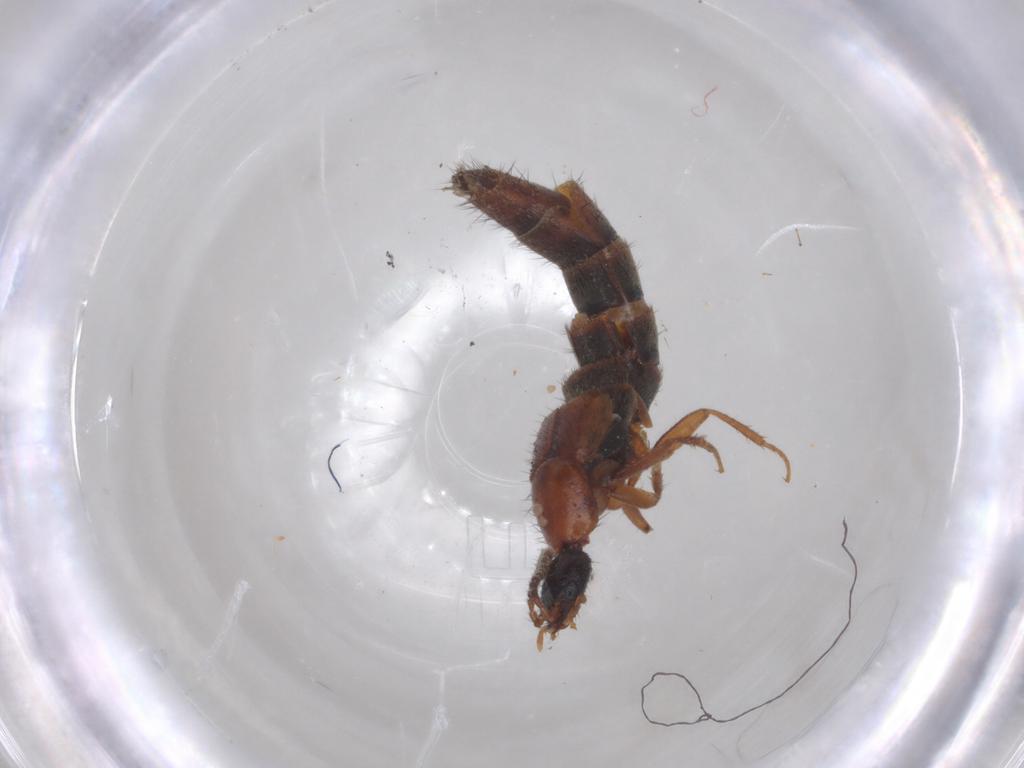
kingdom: Animalia
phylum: Arthropoda
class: Insecta
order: Coleoptera
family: Staphylinidae
